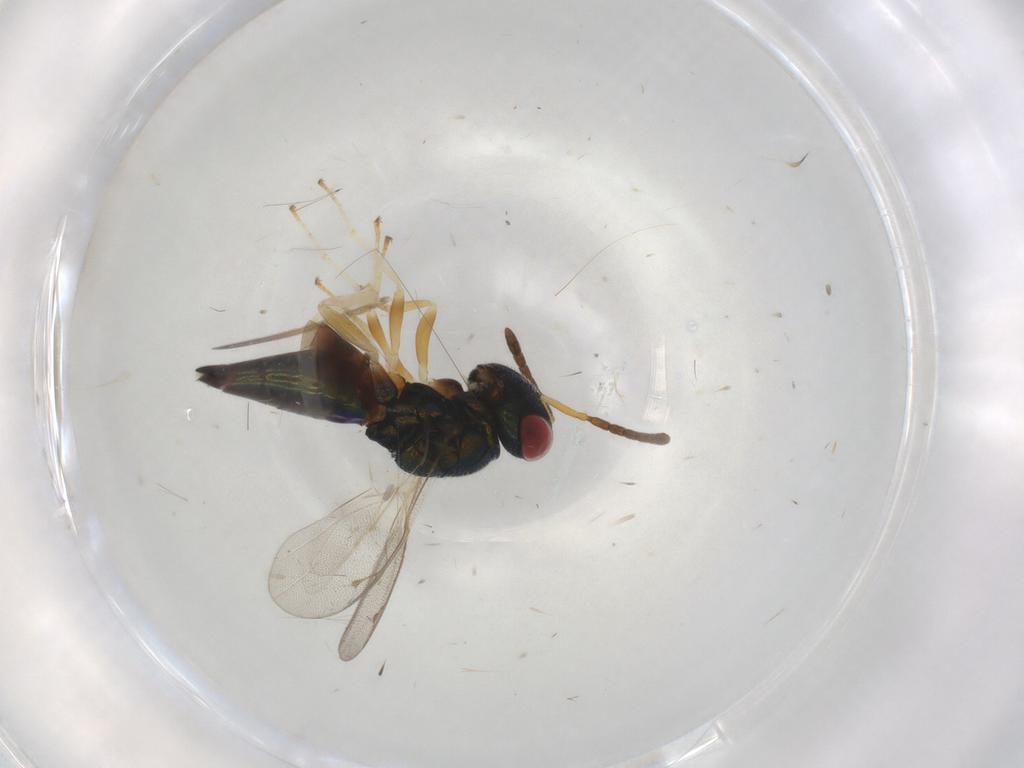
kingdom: Animalia
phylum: Arthropoda
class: Insecta
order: Hymenoptera
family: Pteromalidae
